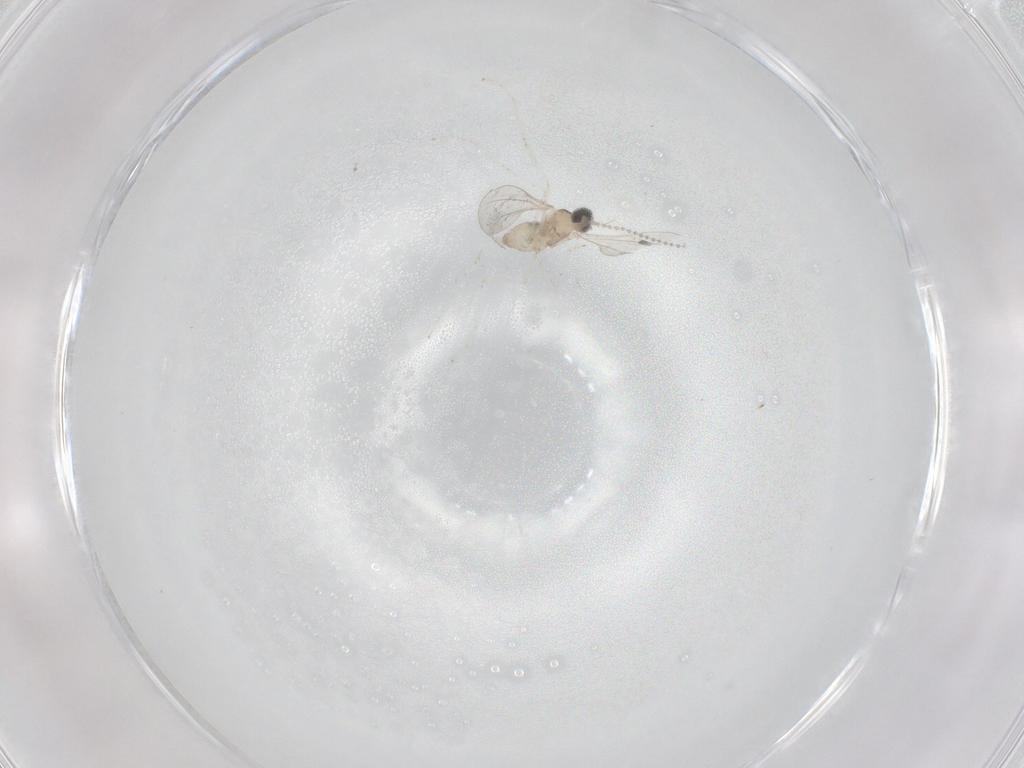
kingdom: Animalia
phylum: Arthropoda
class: Insecta
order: Diptera
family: Cecidomyiidae
